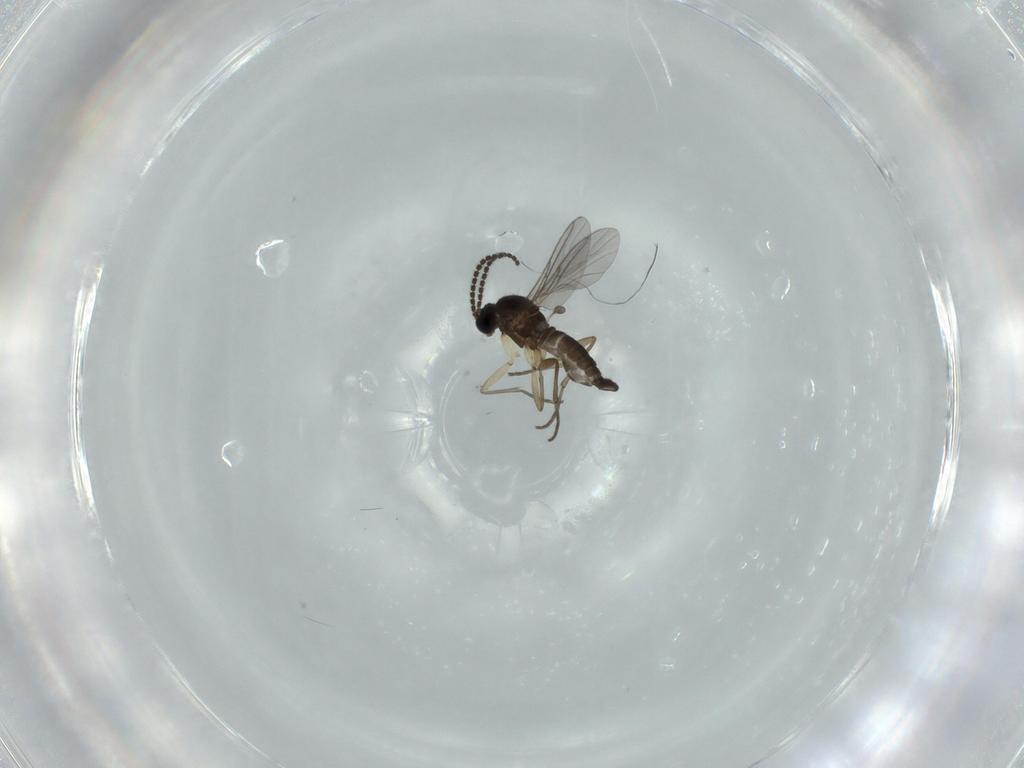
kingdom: Animalia
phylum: Arthropoda
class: Insecta
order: Diptera
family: Sciaridae
